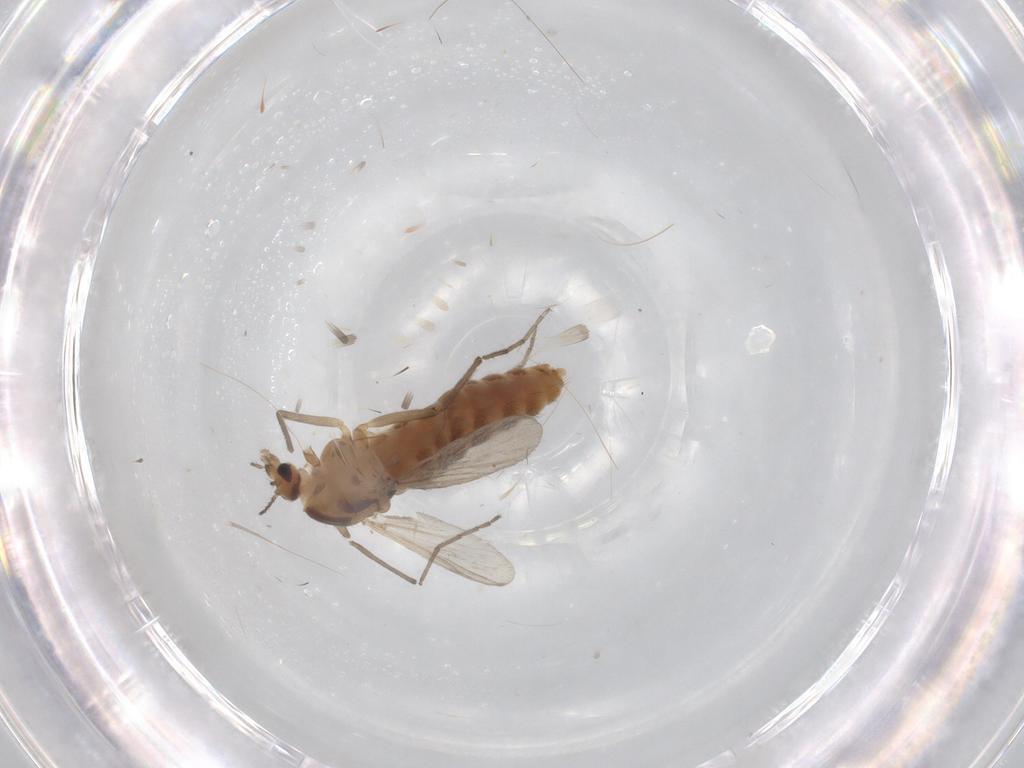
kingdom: Animalia
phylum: Arthropoda
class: Insecta
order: Diptera
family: Chironomidae
